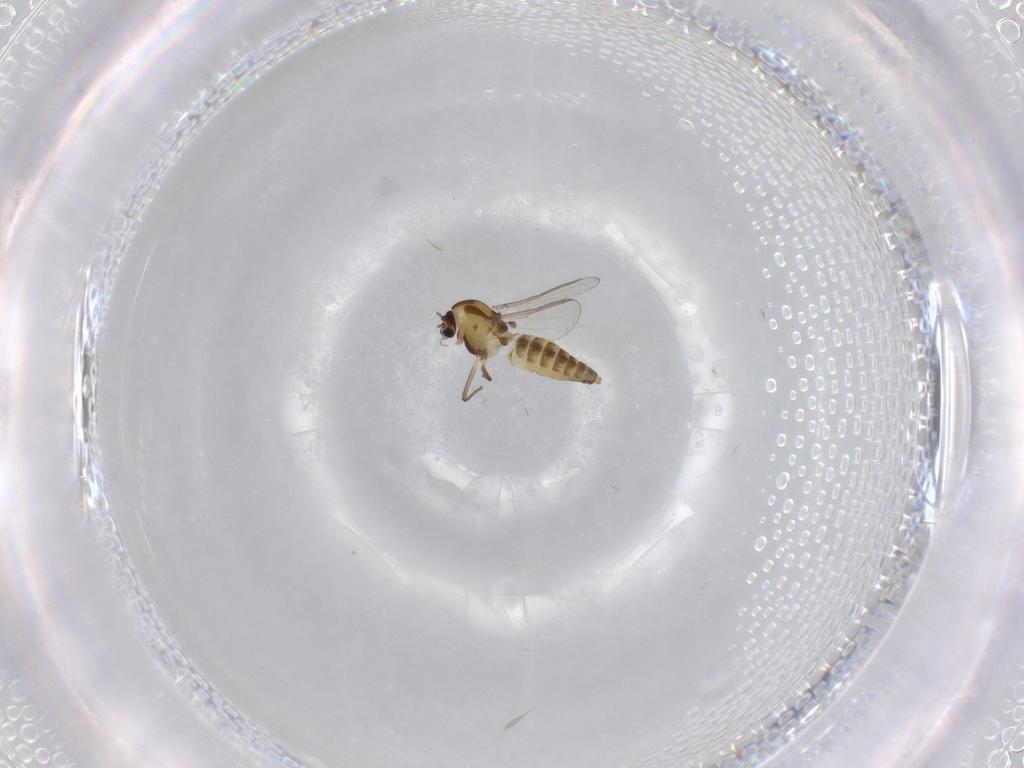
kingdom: Animalia
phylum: Arthropoda
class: Insecta
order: Diptera
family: Chironomidae
